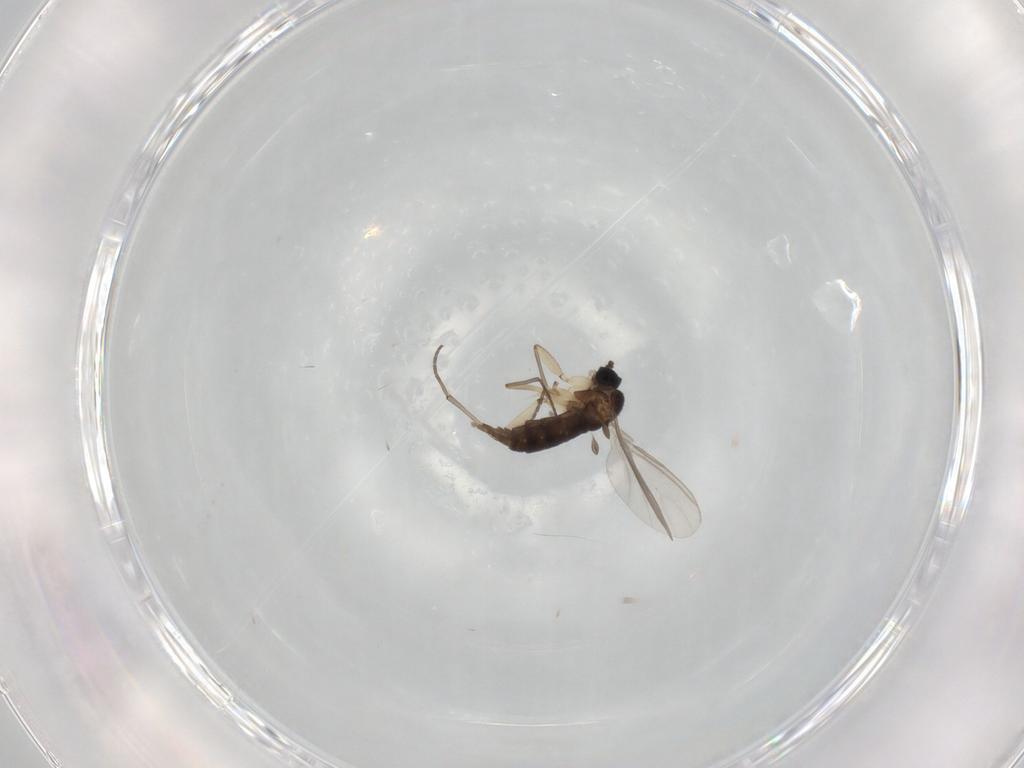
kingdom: Animalia
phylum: Arthropoda
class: Insecta
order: Diptera
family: Sciaridae
